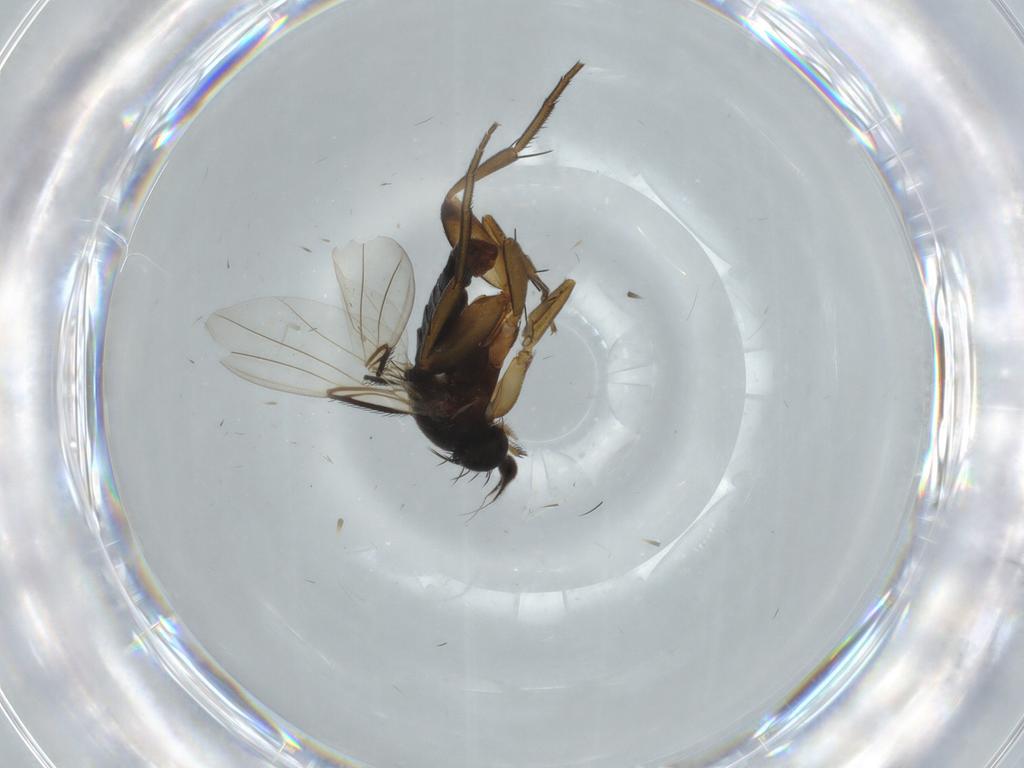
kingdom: Animalia
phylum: Arthropoda
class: Insecta
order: Diptera
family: Phoridae
